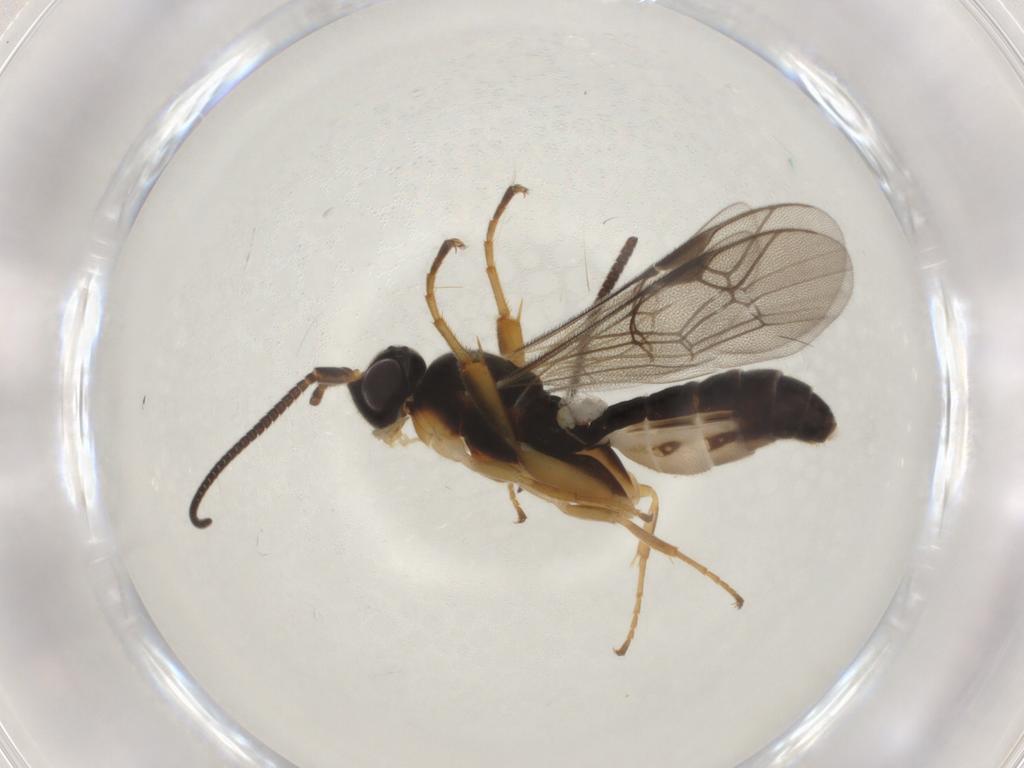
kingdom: Animalia
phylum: Arthropoda
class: Insecta
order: Hymenoptera
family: Ichneumonidae
